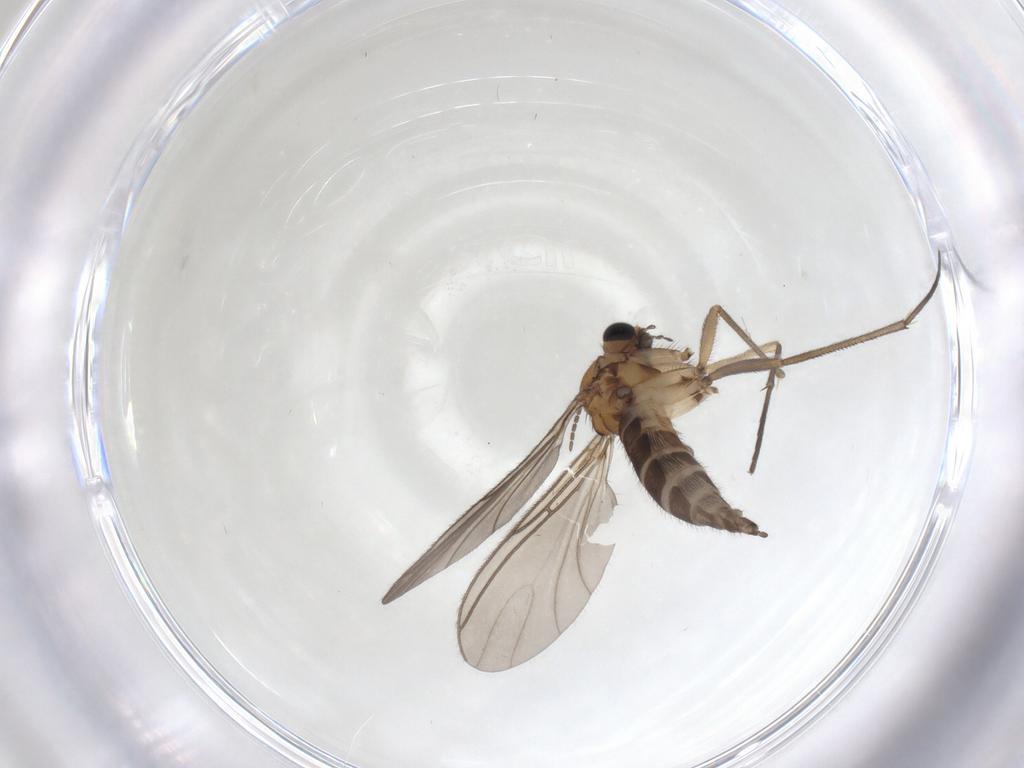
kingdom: Animalia
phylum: Arthropoda
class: Insecta
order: Diptera
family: Sciaridae
